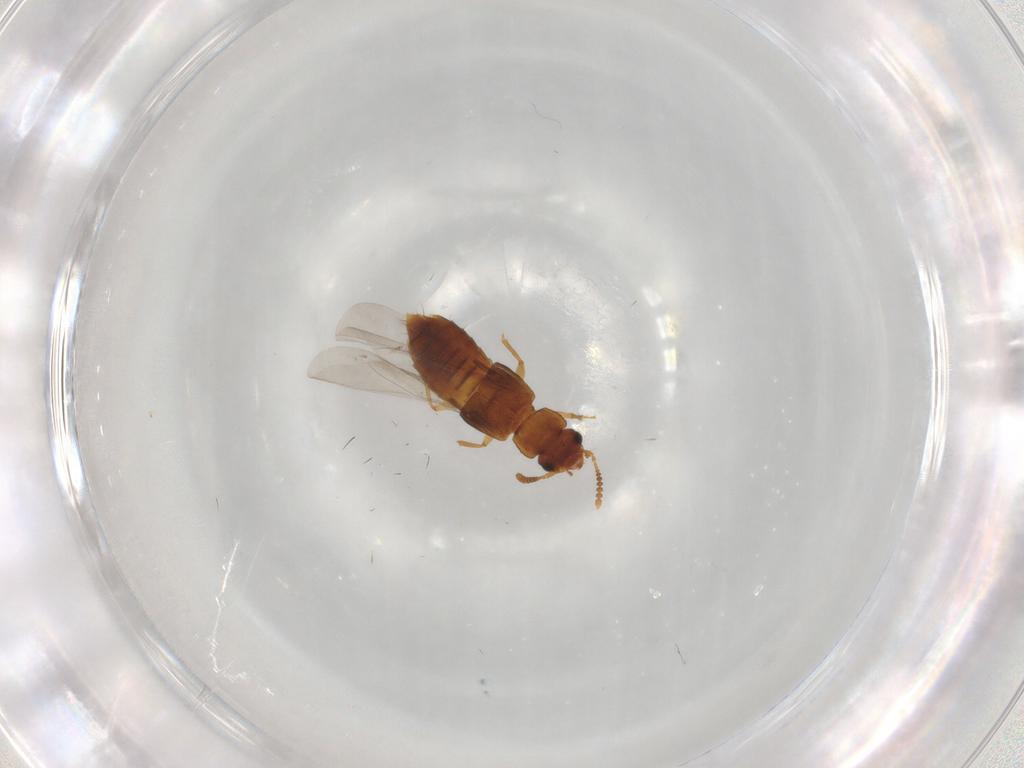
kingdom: Animalia
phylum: Arthropoda
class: Insecta
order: Coleoptera
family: Staphylinidae
